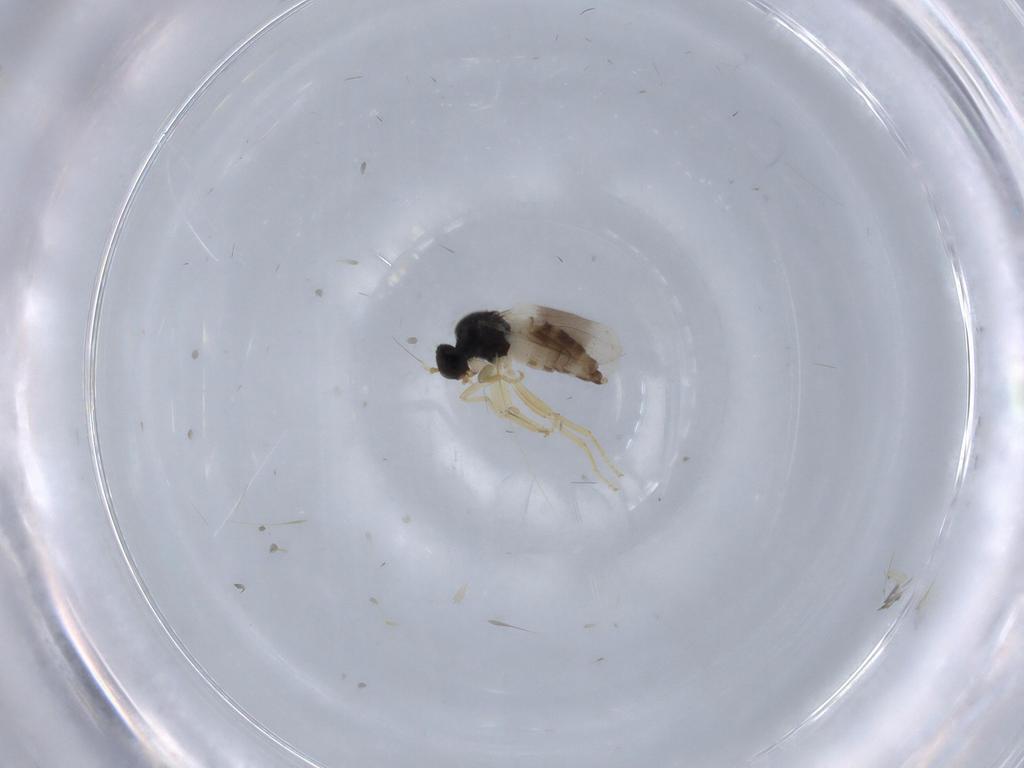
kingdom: Animalia
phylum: Arthropoda
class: Insecta
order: Diptera
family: Hybotidae
